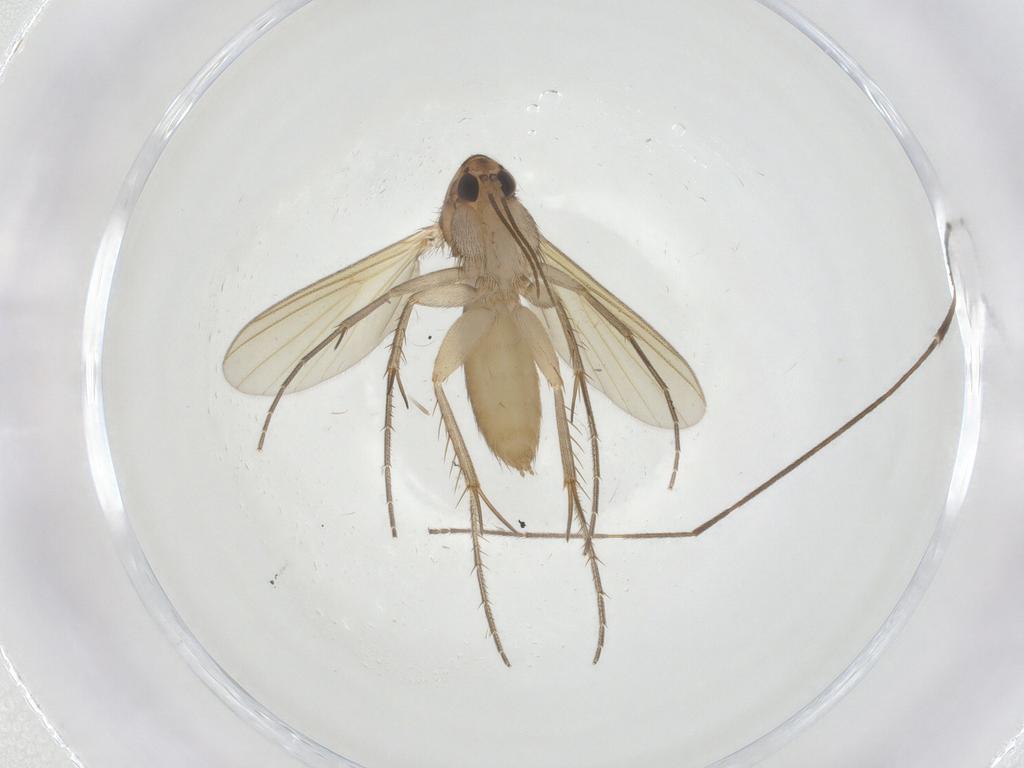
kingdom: Animalia
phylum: Arthropoda
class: Insecta
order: Diptera
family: Mycetophilidae
